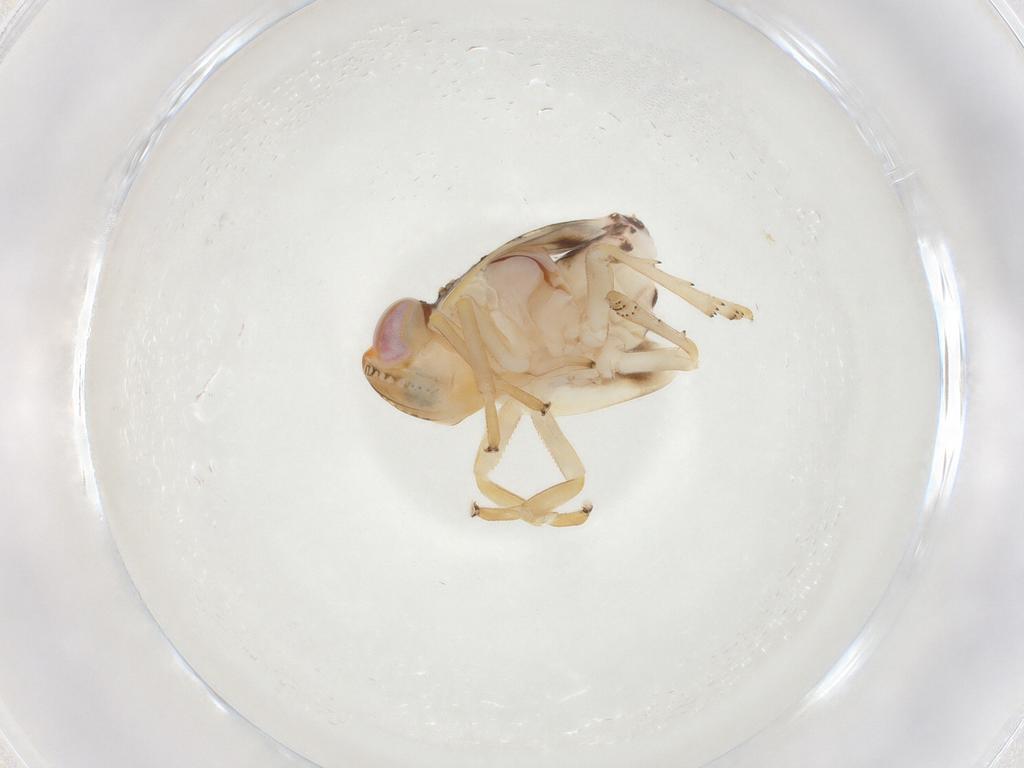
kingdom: Animalia
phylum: Arthropoda
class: Insecta
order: Hemiptera
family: Nogodinidae
